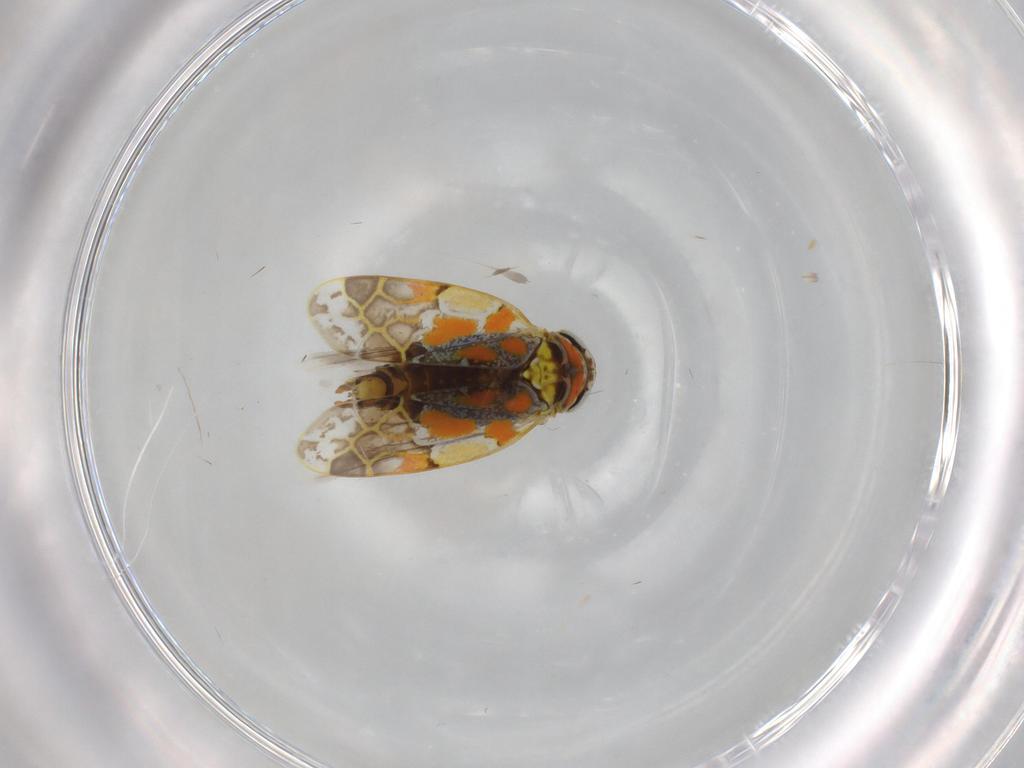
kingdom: Animalia
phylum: Arthropoda
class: Insecta
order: Hemiptera
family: Cicadellidae
